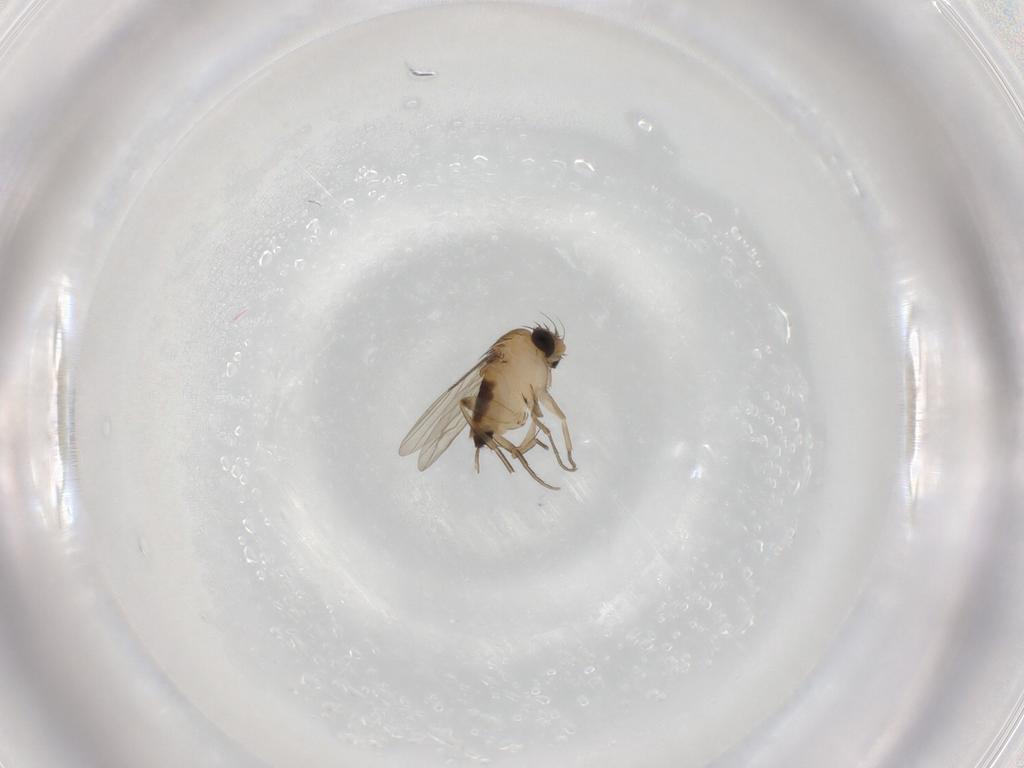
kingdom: Animalia
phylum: Arthropoda
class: Insecta
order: Diptera
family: Phoridae
